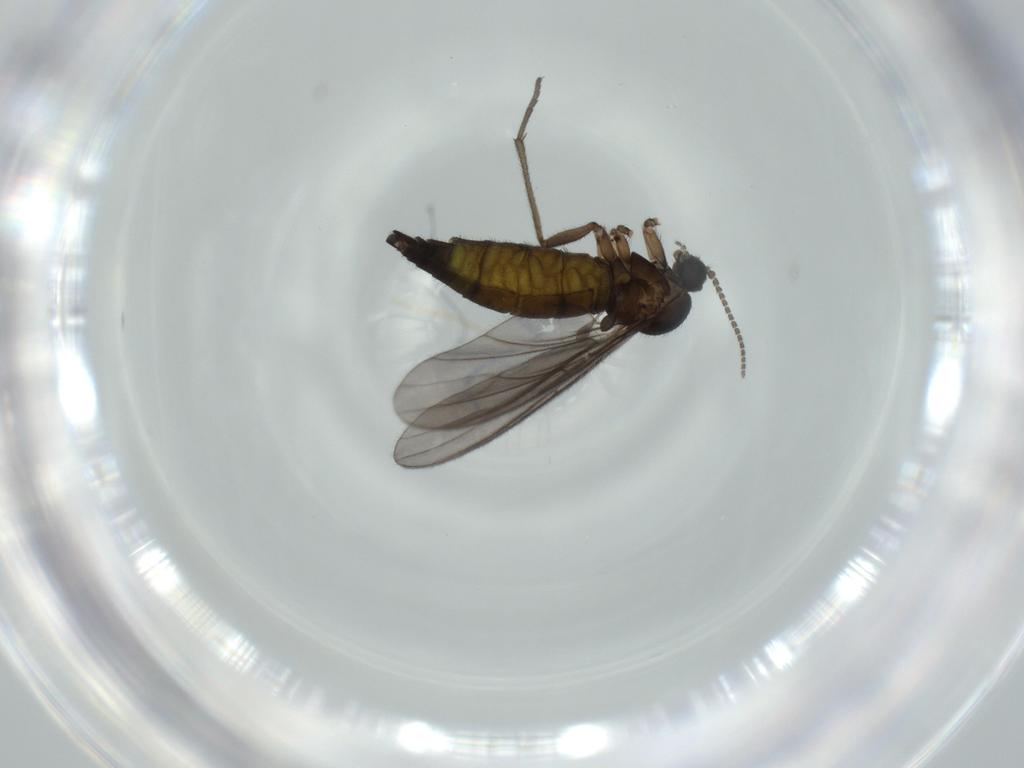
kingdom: Animalia
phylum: Arthropoda
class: Insecta
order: Diptera
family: Sciaridae
